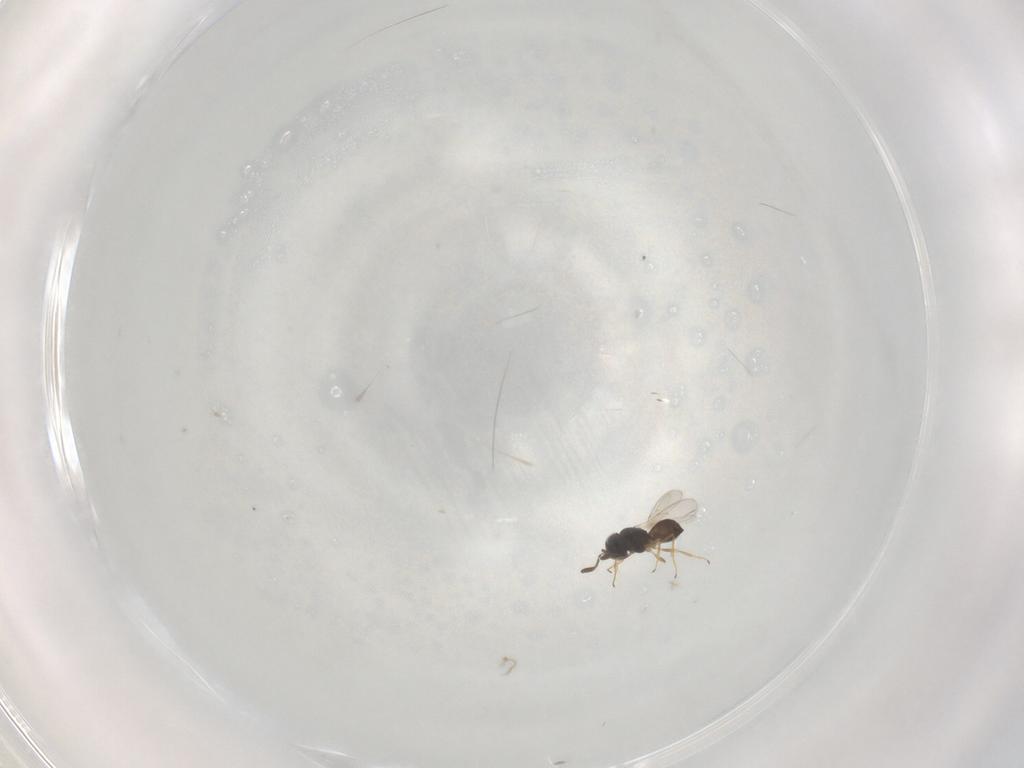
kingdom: Animalia
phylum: Arthropoda
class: Insecta
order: Hymenoptera
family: Scelionidae
